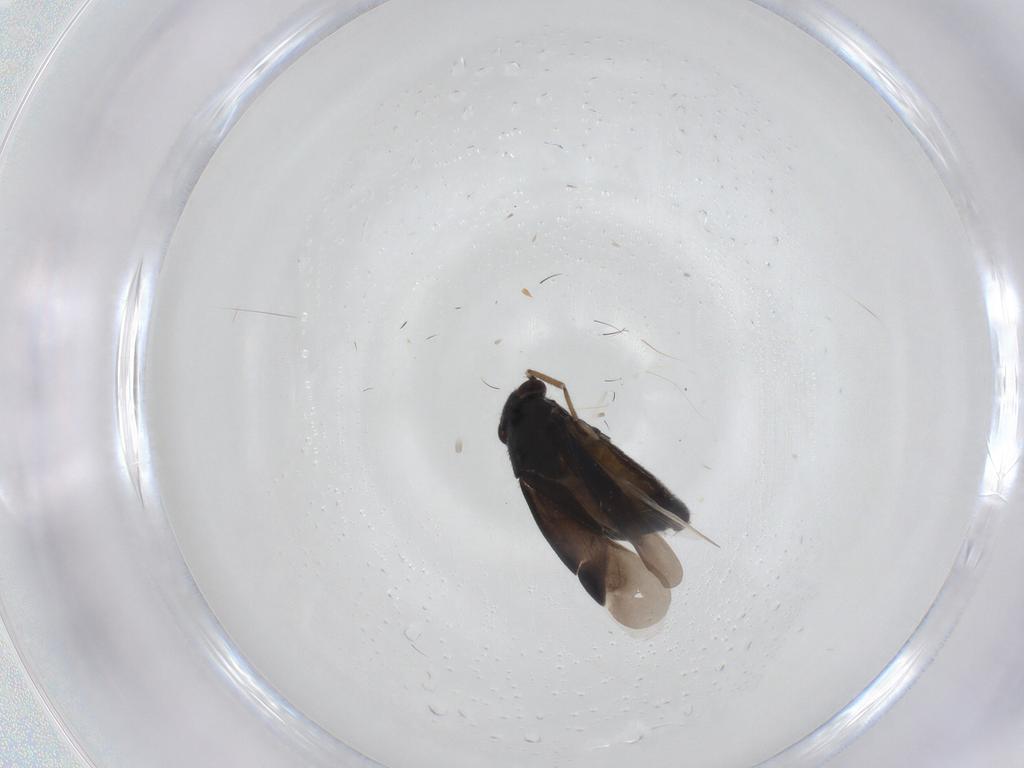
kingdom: Animalia
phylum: Arthropoda
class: Insecta
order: Hemiptera
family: Miridae
